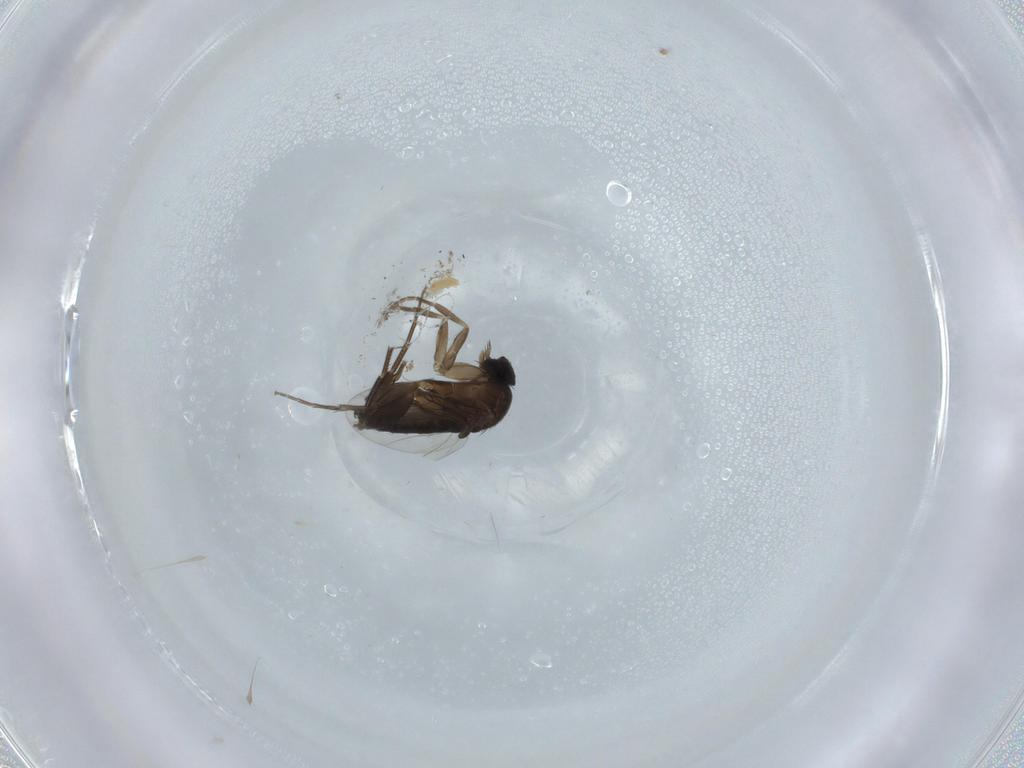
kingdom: Animalia
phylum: Arthropoda
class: Insecta
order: Diptera
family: Phoridae
